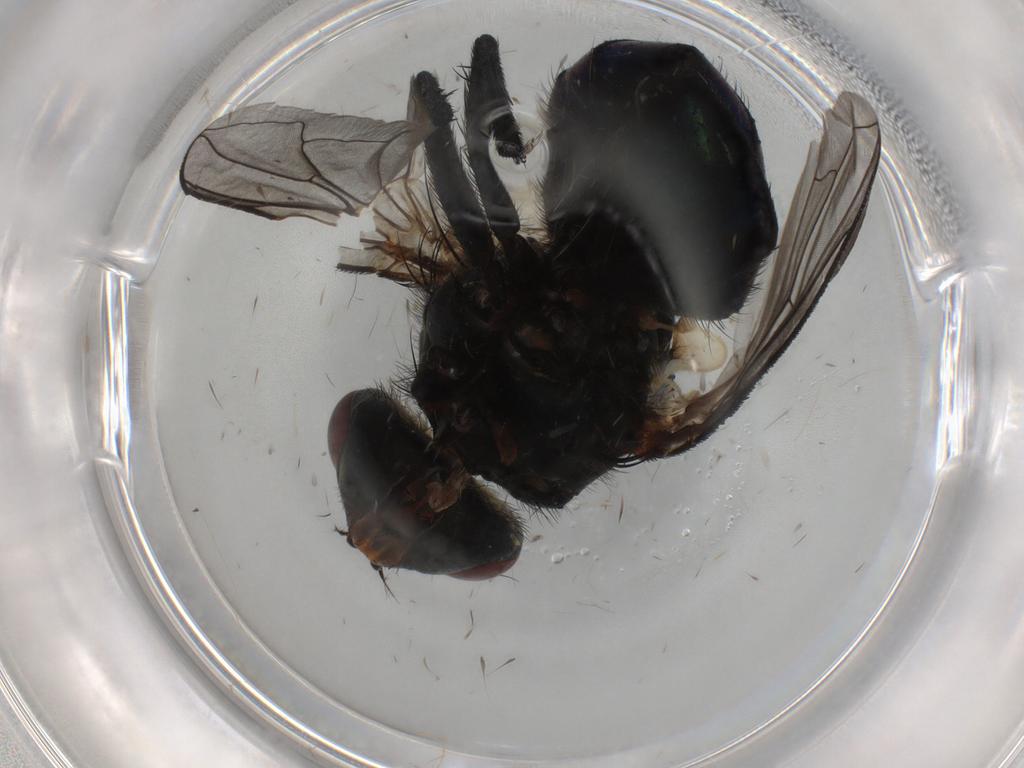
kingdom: Animalia
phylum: Arthropoda
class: Insecta
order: Diptera
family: Calliphoridae
